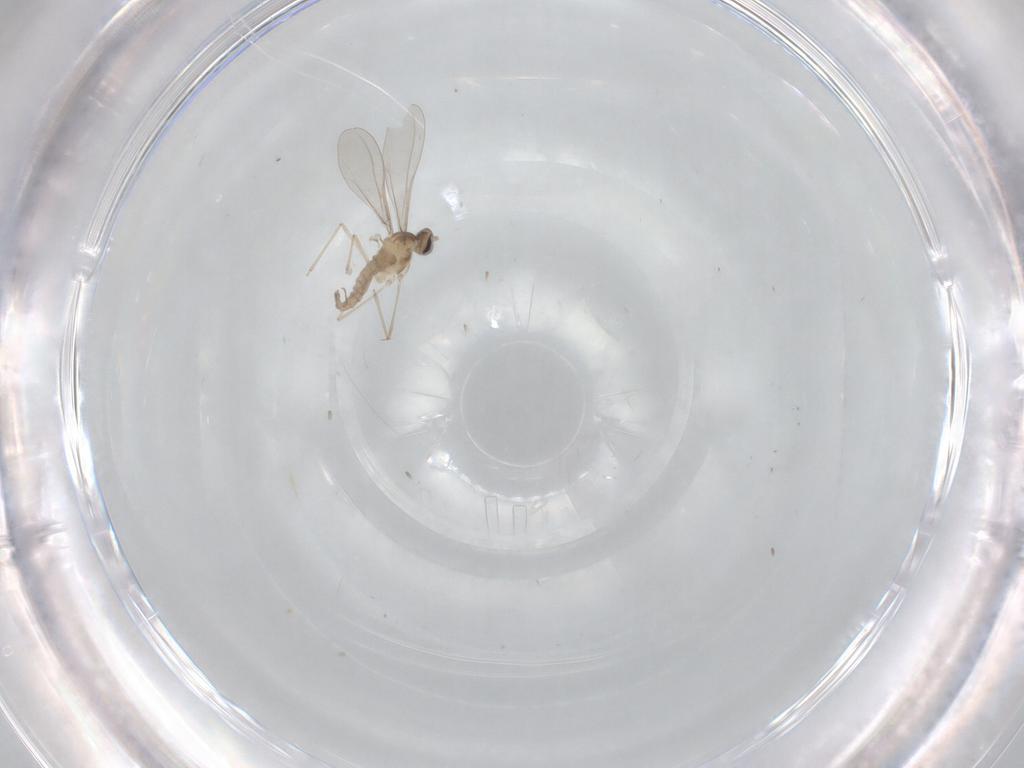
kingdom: Animalia
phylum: Arthropoda
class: Insecta
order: Diptera
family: Cecidomyiidae
